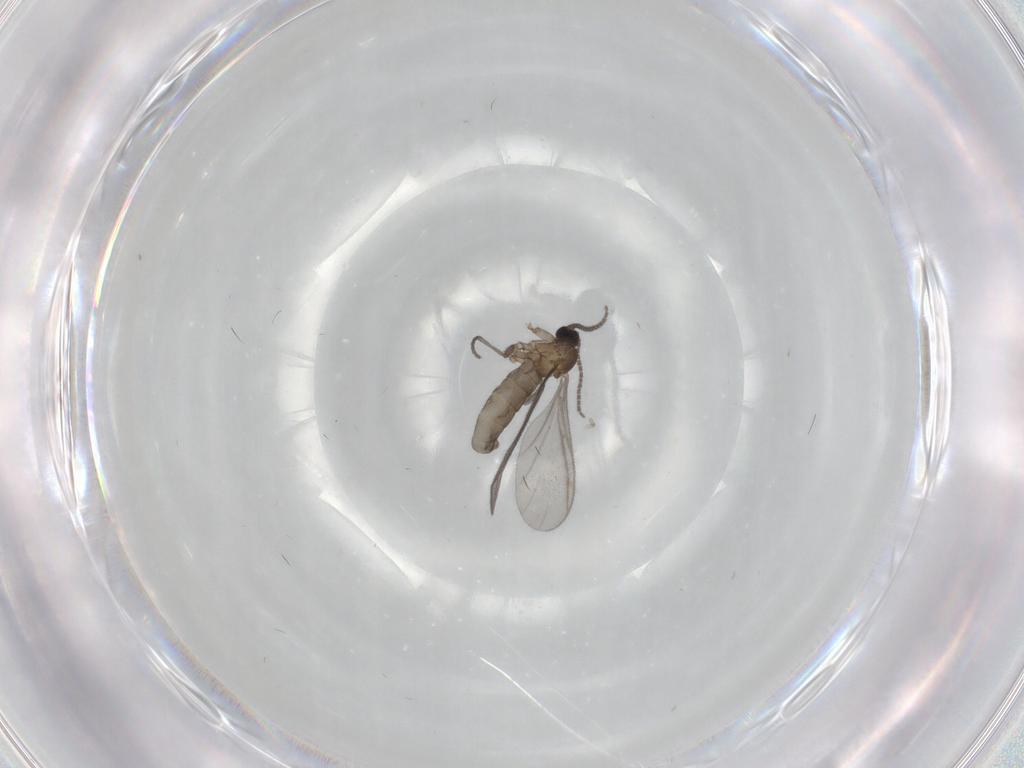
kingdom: Animalia
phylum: Arthropoda
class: Insecta
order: Diptera
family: Sciaridae
